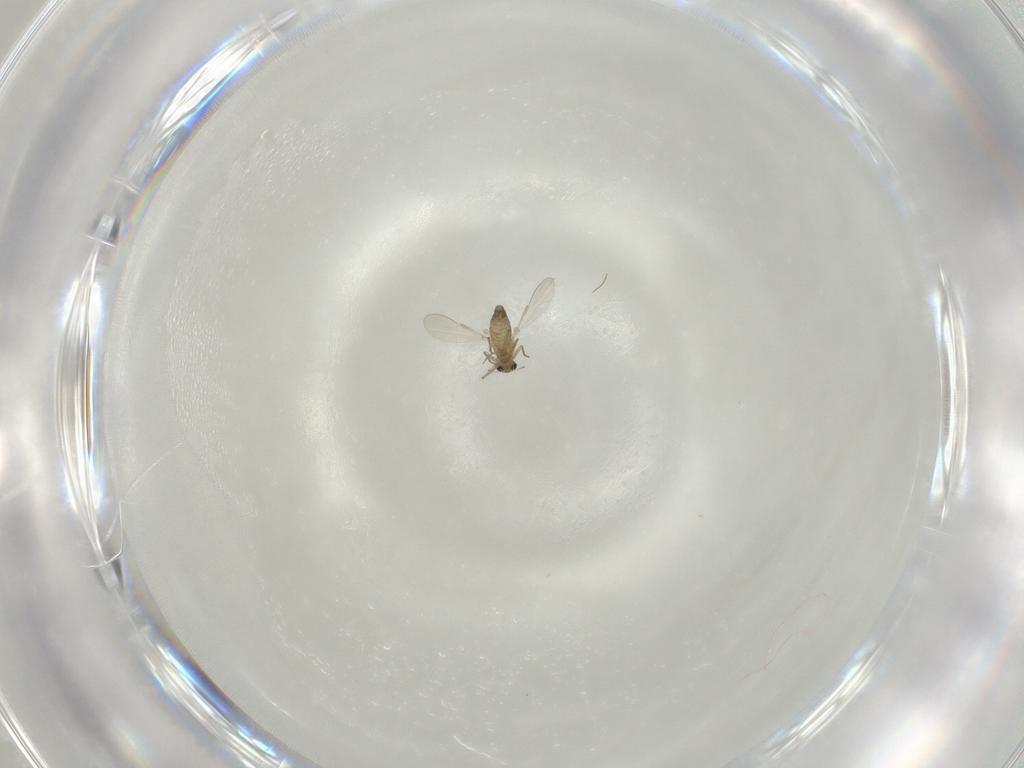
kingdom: Animalia
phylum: Arthropoda
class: Insecta
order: Diptera
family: Chironomidae
